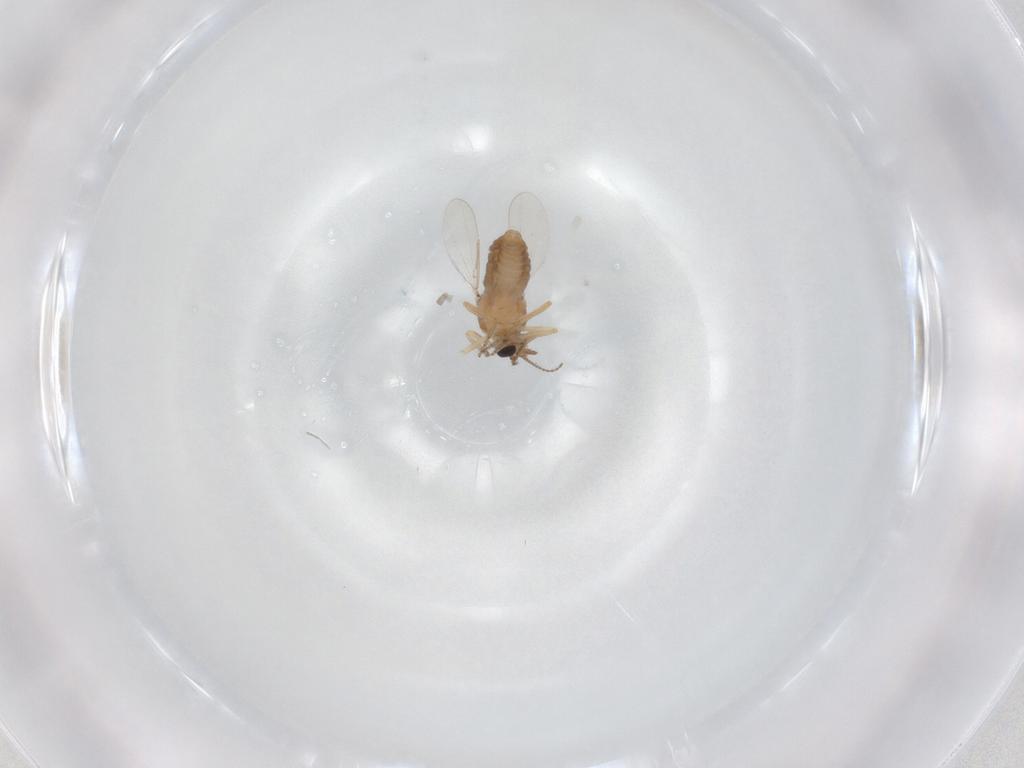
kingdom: Animalia
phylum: Arthropoda
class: Insecta
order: Diptera
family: Ceratopogonidae
